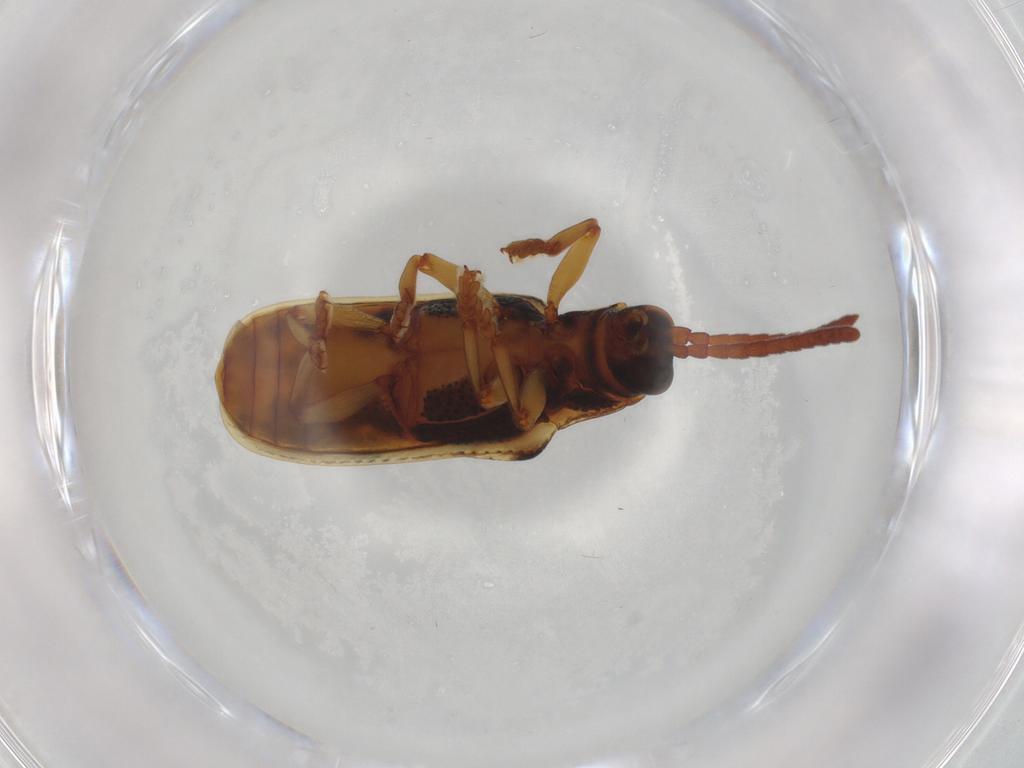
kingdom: Animalia
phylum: Arthropoda
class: Insecta
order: Coleoptera
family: Chrysomelidae
